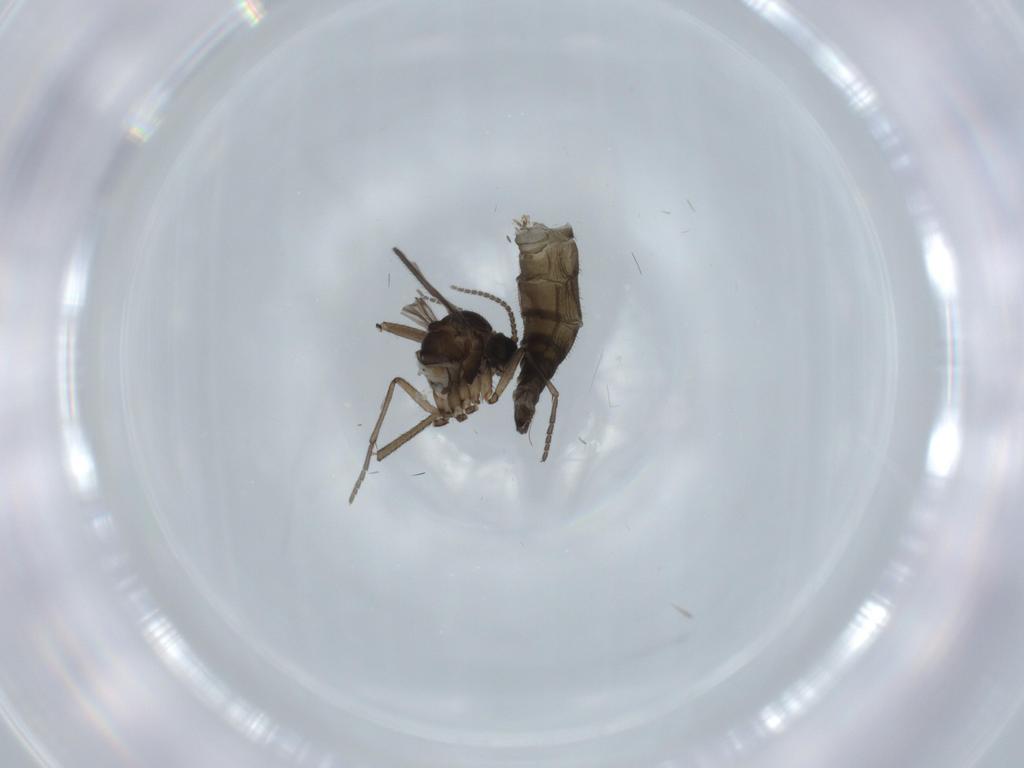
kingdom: Animalia
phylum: Arthropoda
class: Insecta
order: Diptera
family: Sciaridae
